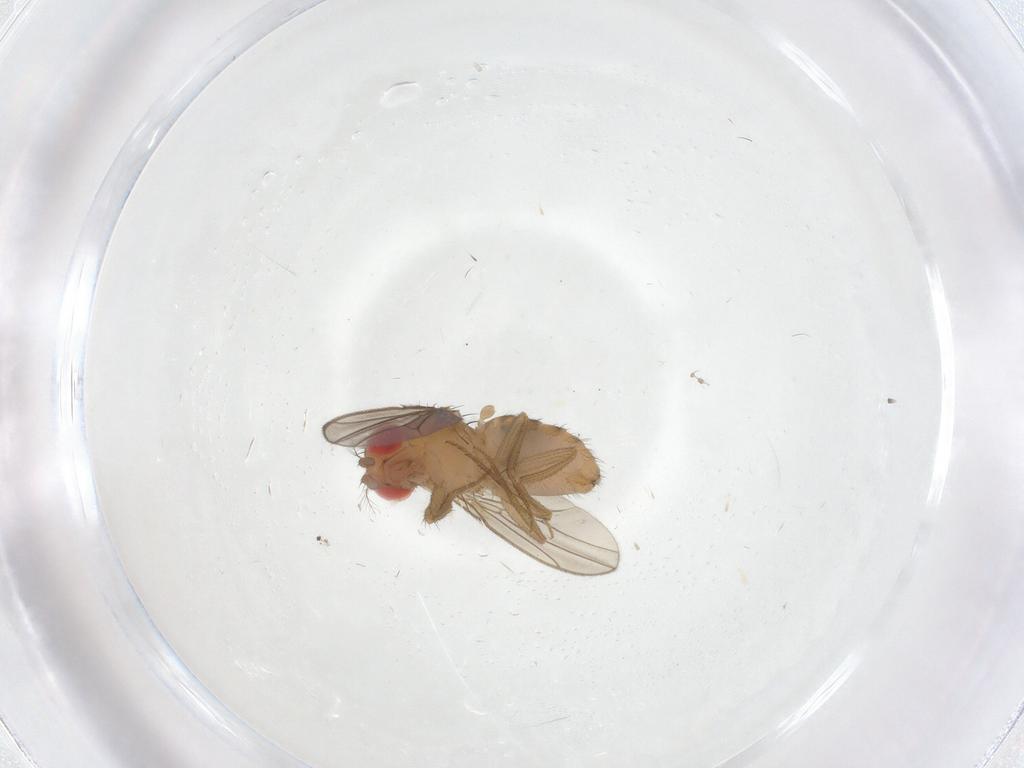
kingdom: Animalia
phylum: Arthropoda
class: Insecta
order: Diptera
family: Drosophilidae
